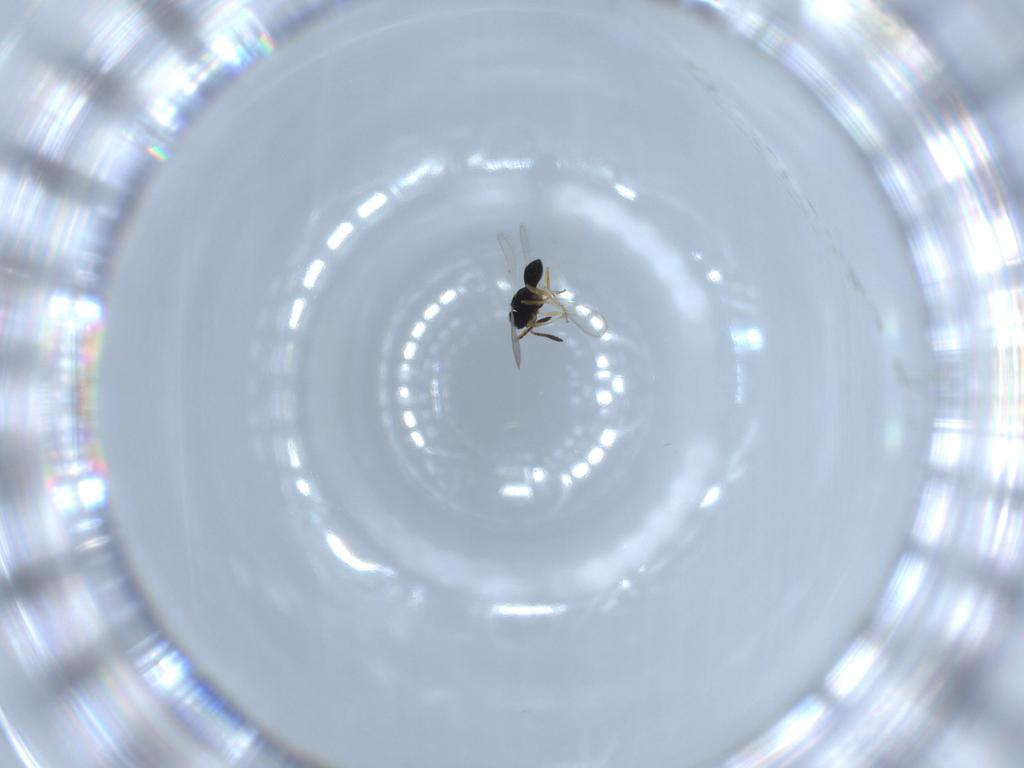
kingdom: Animalia
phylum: Arthropoda
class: Insecta
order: Hymenoptera
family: Scelionidae
